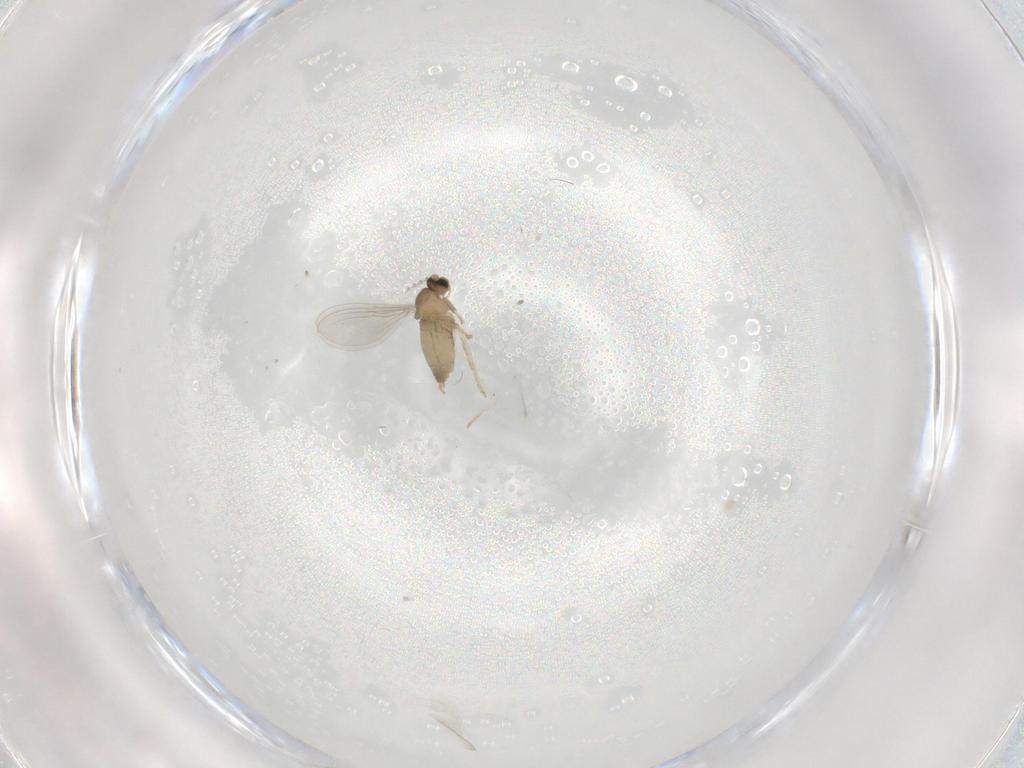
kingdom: Animalia
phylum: Arthropoda
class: Insecta
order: Diptera
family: Cecidomyiidae
